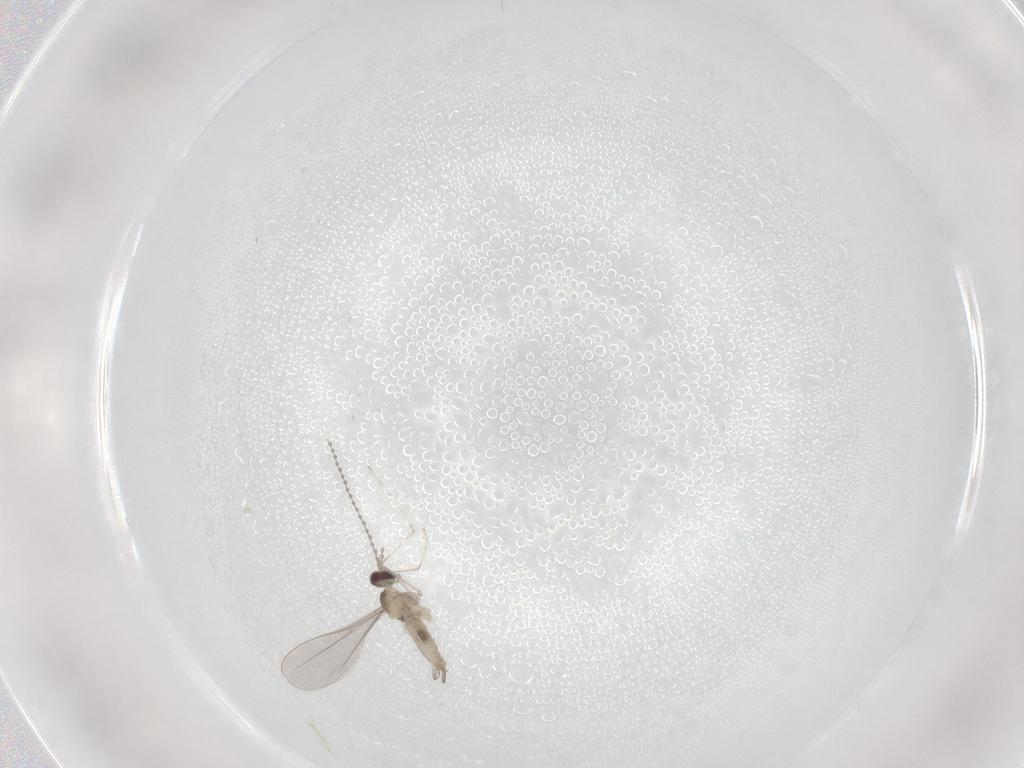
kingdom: Animalia
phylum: Arthropoda
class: Insecta
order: Diptera
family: Cecidomyiidae
